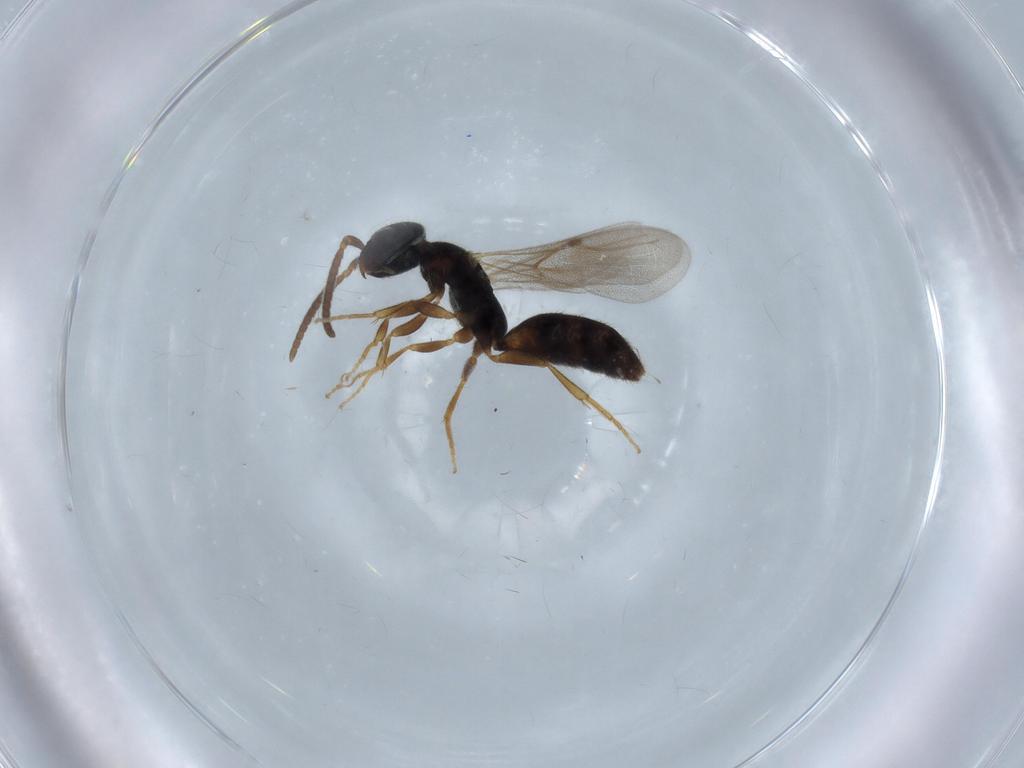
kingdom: Animalia
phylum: Arthropoda
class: Insecta
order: Hymenoptera
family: Bethylidae
